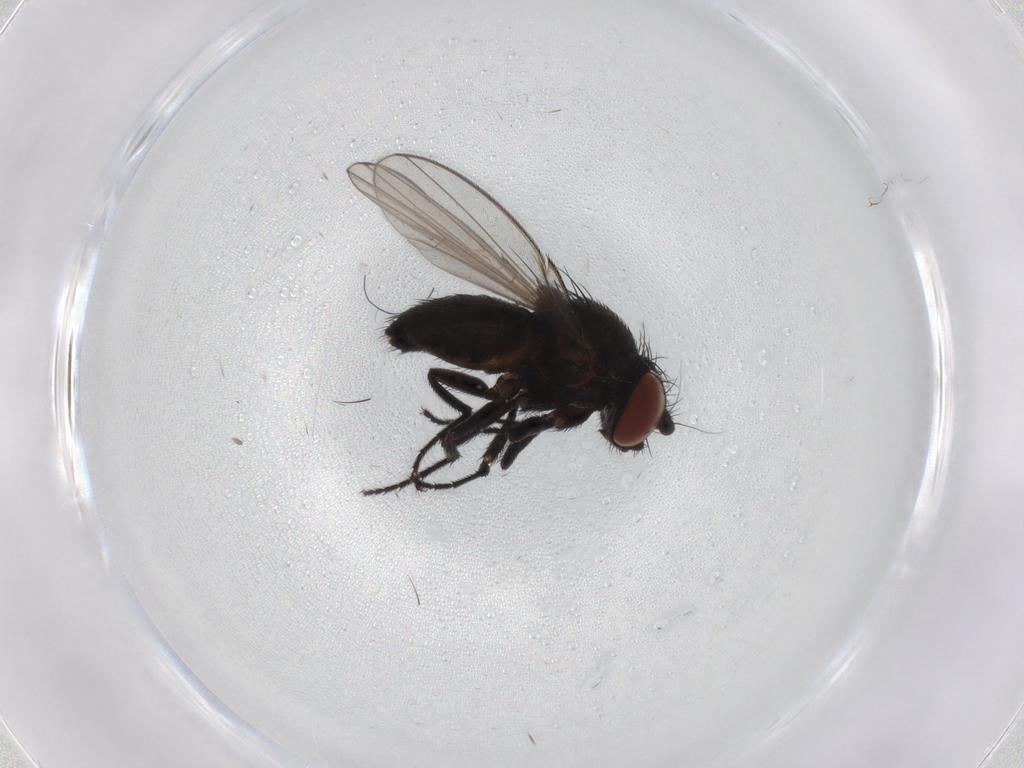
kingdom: Animalia
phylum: Arthropoda
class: Insecta
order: Diptera
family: Milichiidae
